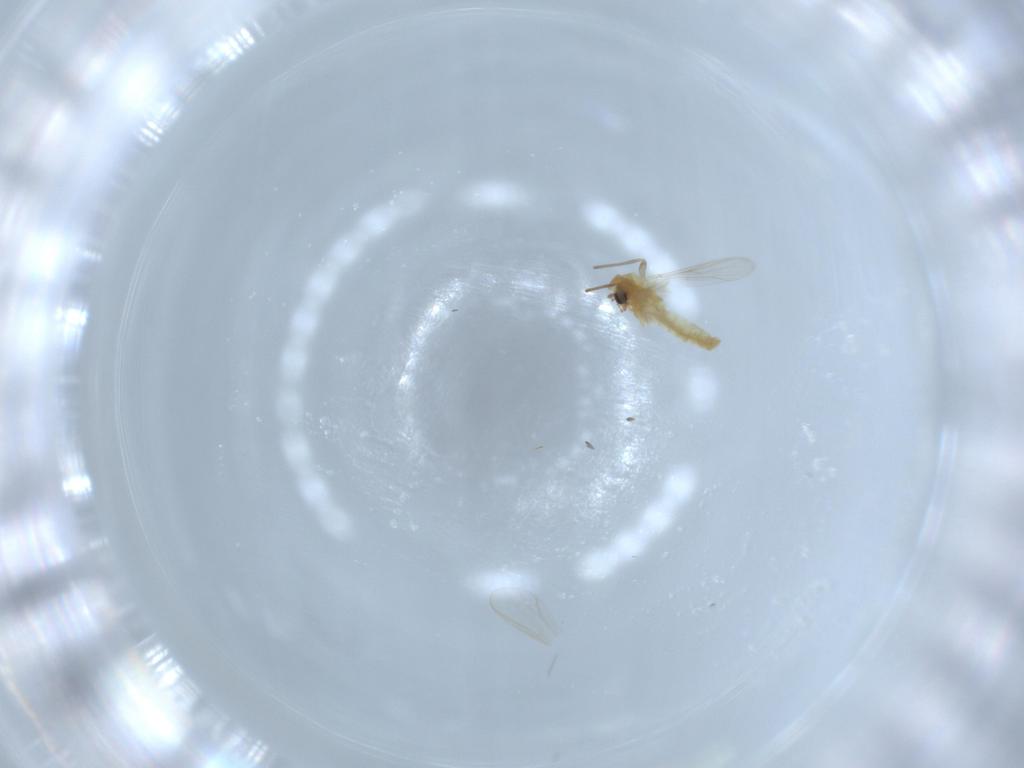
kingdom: Animalia
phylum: Arthropoda
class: Insecta
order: Diptera
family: Chironomidae
